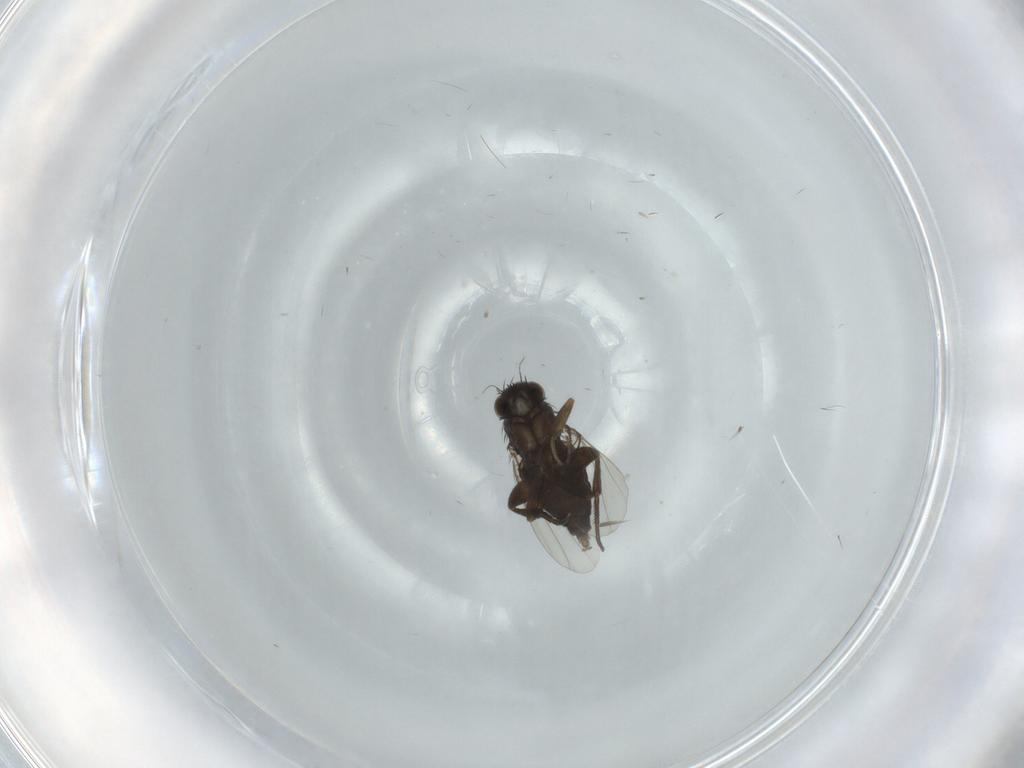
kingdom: Animalia
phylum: Arthropoda
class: Insecta
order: Diptera
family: Phoridae
